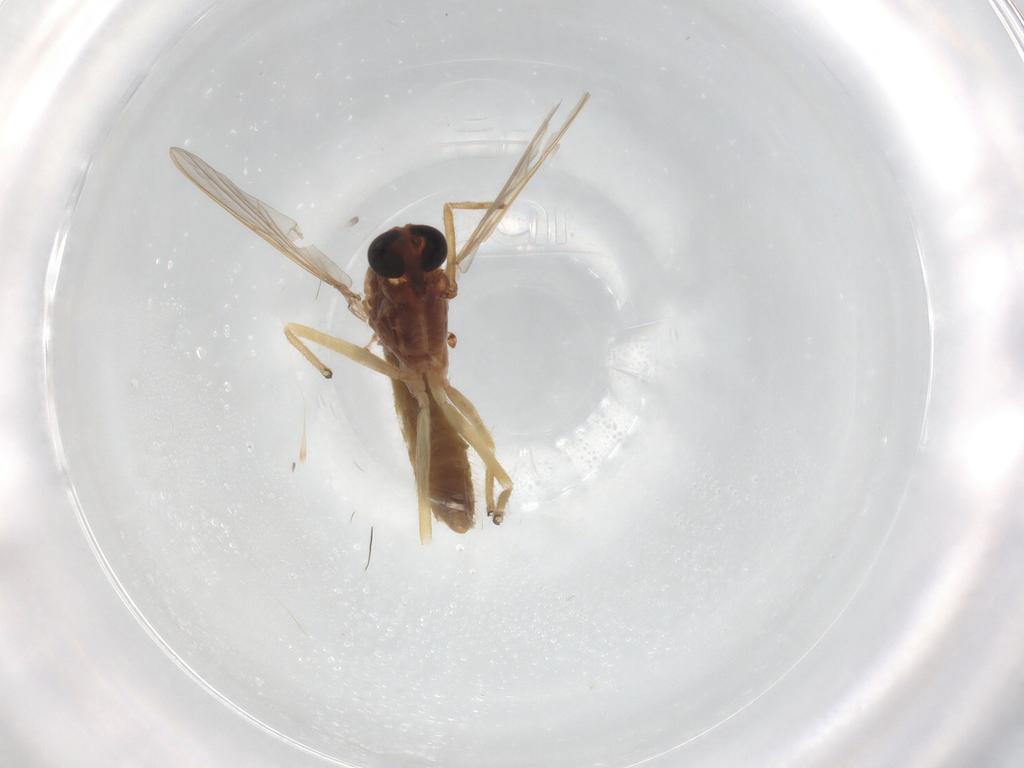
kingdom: Animalia
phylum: Arthropoda
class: Insecta
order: Diptera
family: Chironomidae
